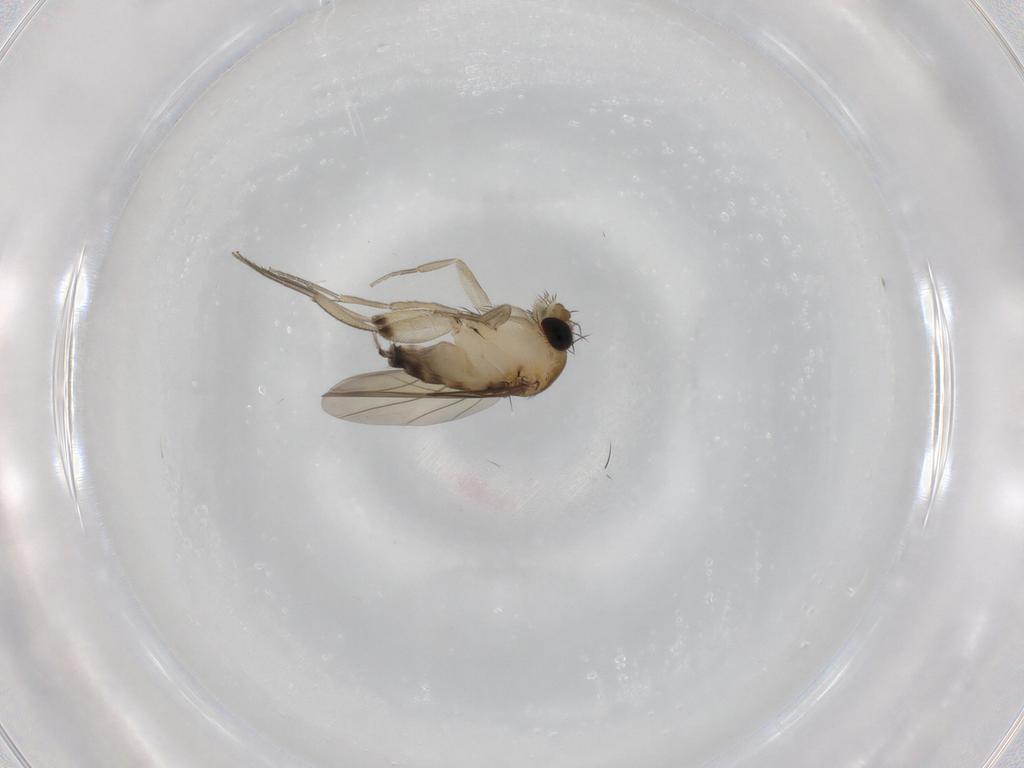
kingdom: Animalia
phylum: Arthropoda
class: Insecta
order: Diptera
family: Phoridae
